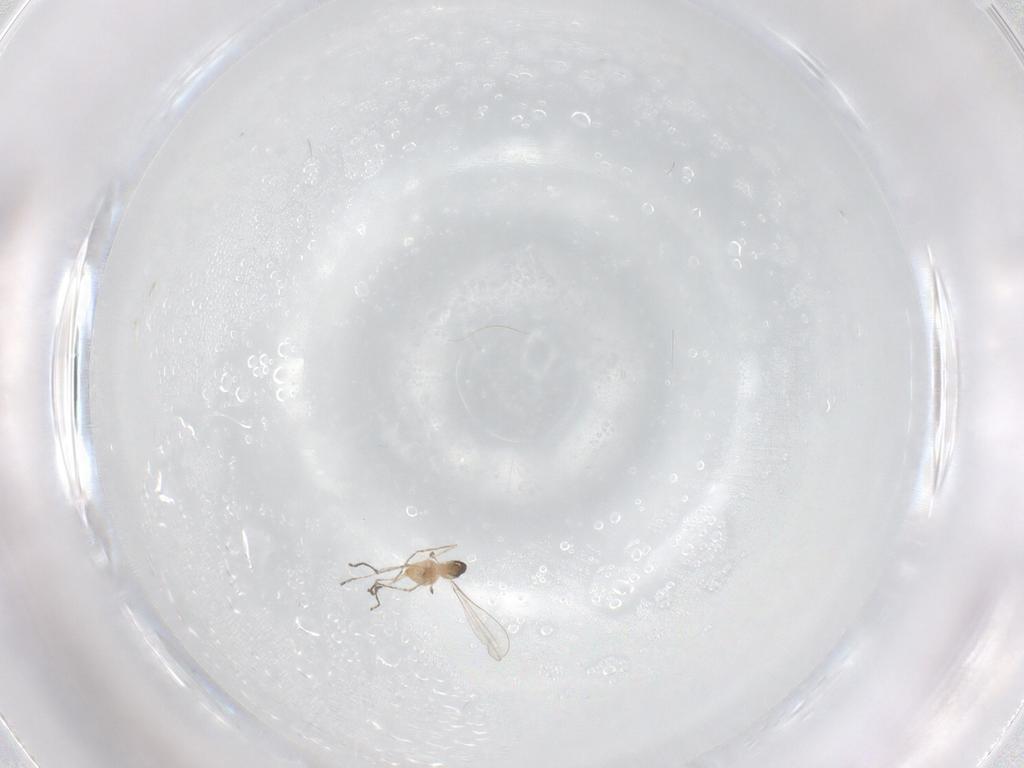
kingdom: Animalia
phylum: Arthropoda
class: Insecta
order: Diptera
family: Cecidomyiidae
